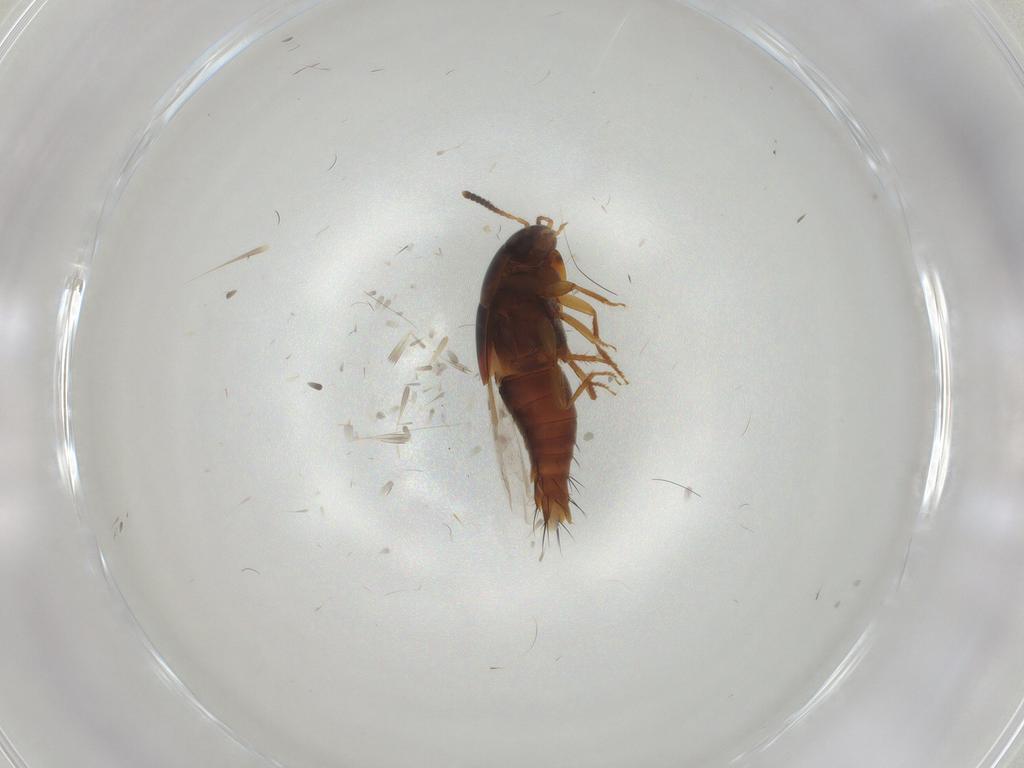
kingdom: Animalia
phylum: Arthropoda
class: Insecta
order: Coleoptera
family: Staphylinidae
